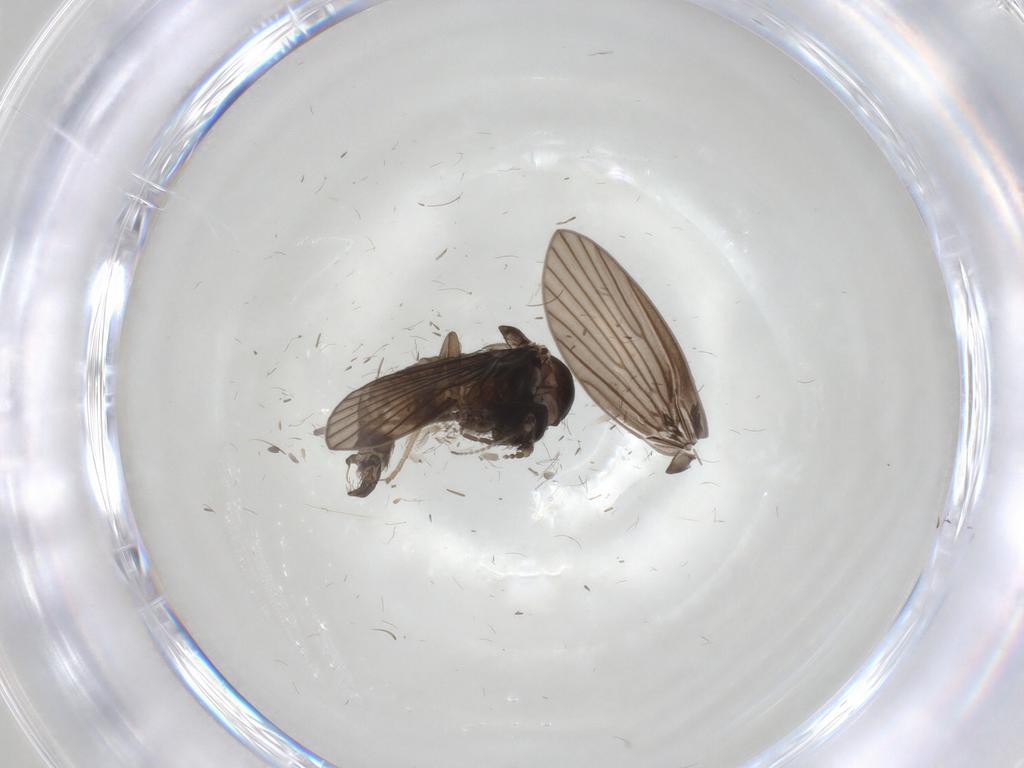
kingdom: Animalia
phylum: Arthropoda
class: Insecta
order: Diptera
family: Psychodidae
